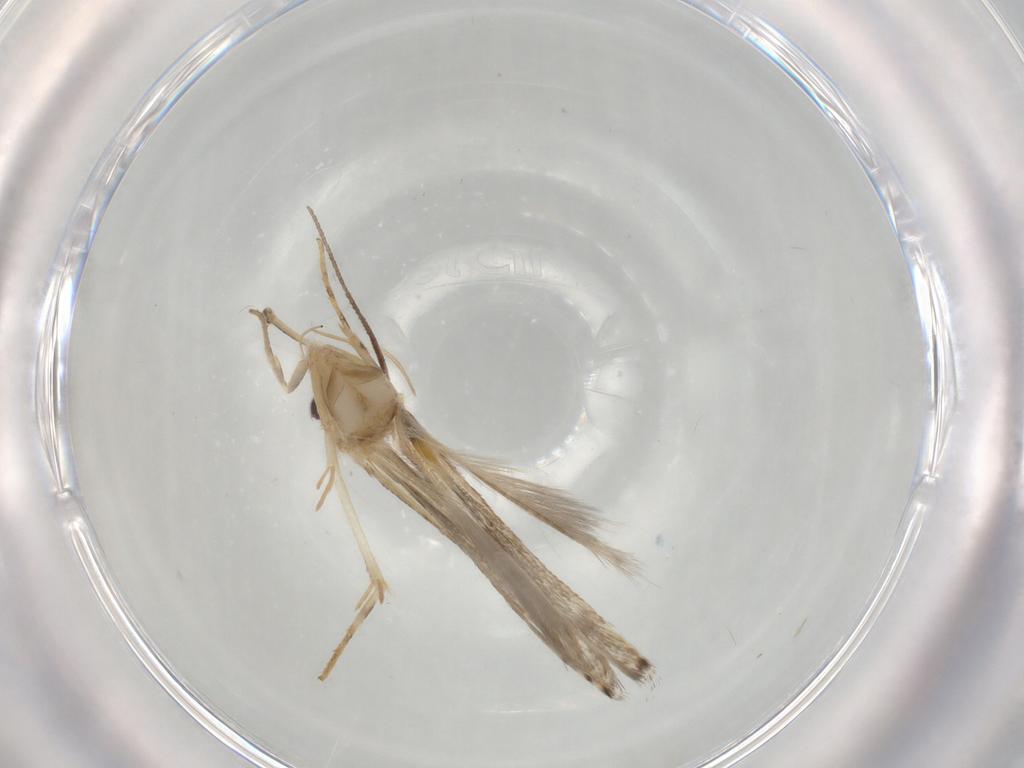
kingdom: Animalia
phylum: Arthropoda
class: Insecta
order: Lepidoptera
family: Gelechiidae
